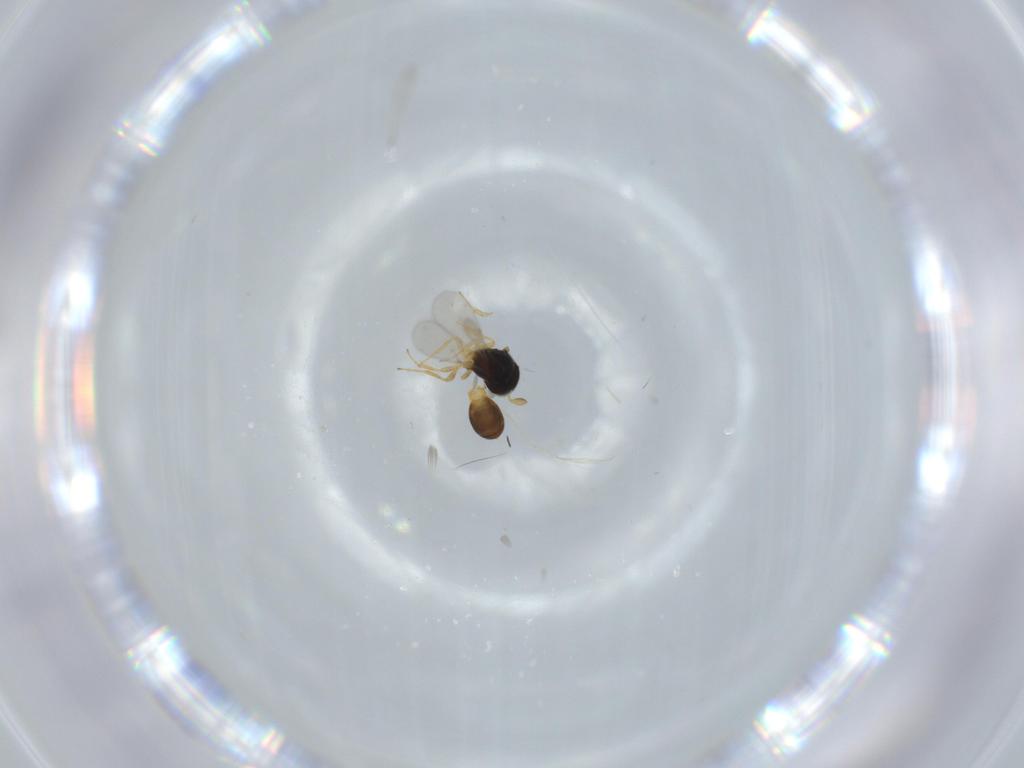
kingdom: Animalia
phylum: Arthropoda
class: Insecta
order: Hymenoptera
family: Scelionidae
